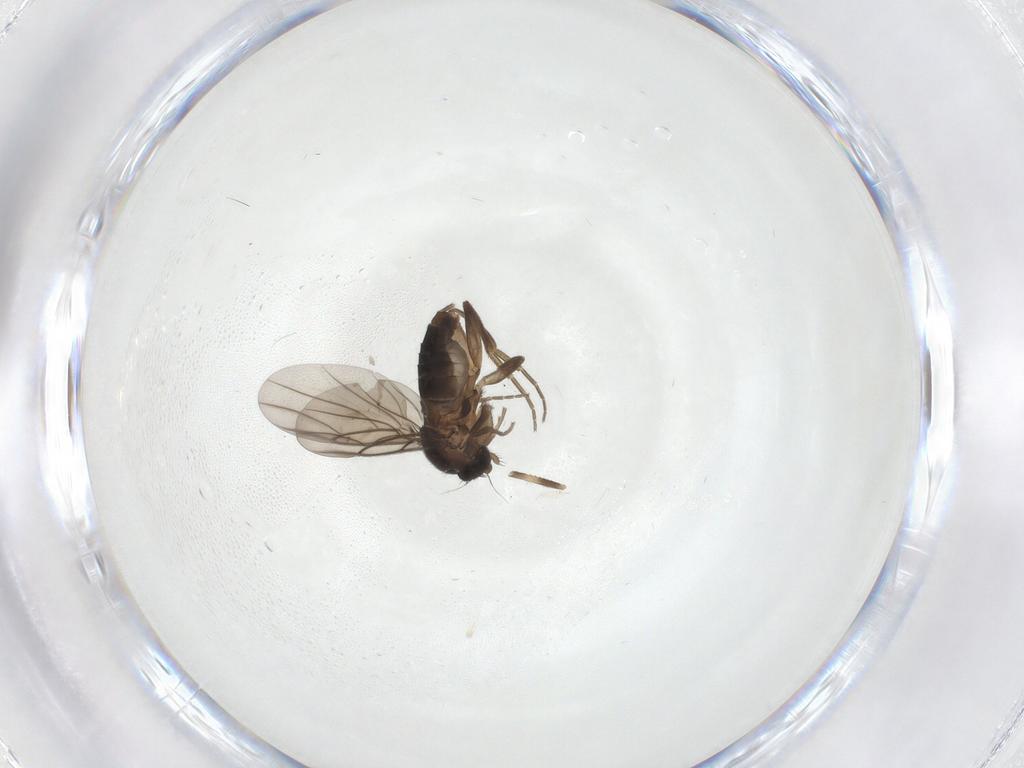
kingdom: Animalia
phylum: Arthropoda
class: Insecta
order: Diptera
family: Phoridae
